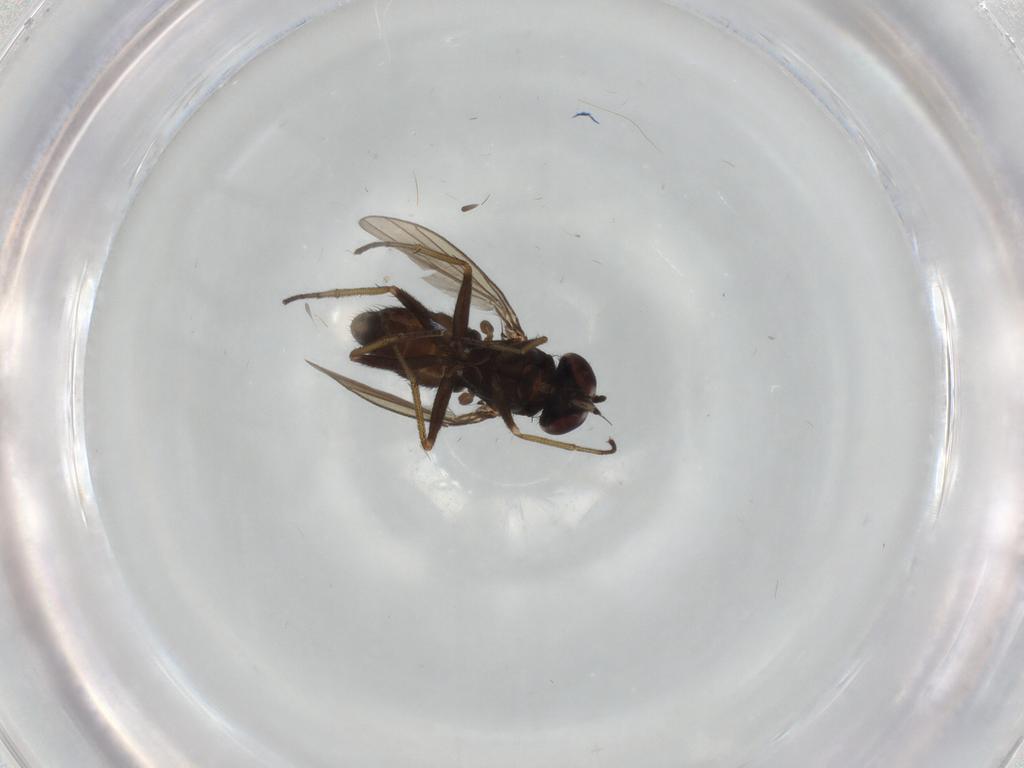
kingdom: Animalia
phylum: Arthropoda
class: Insecta
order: Diptera
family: Dolichopodidae
